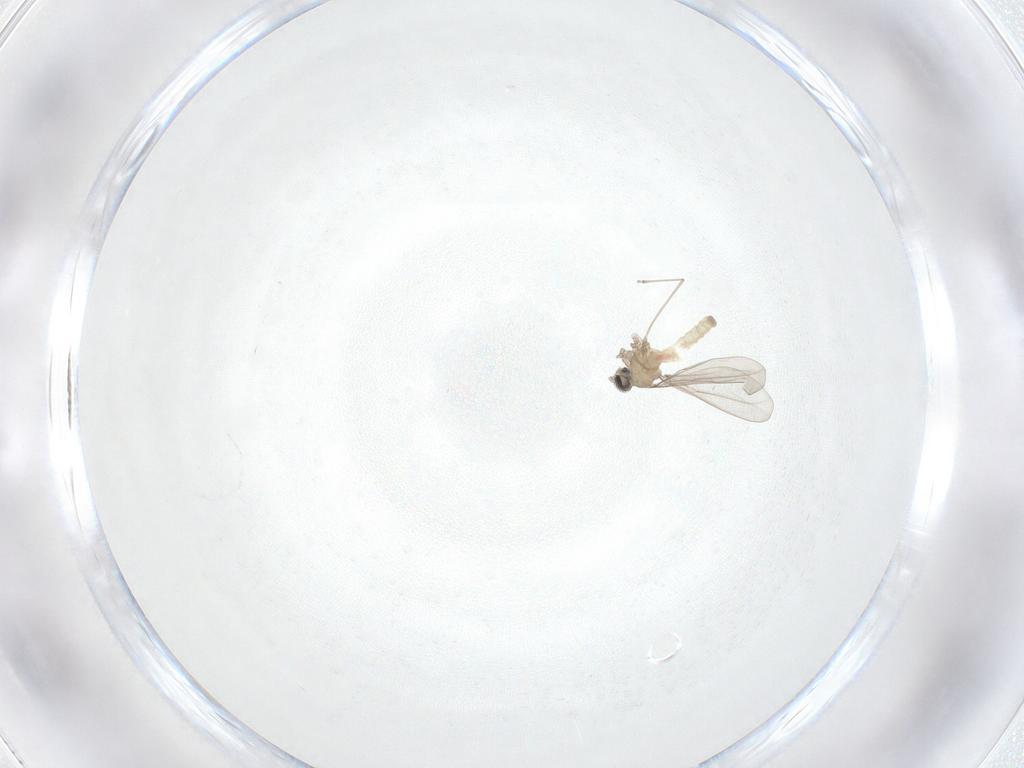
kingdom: Animalia
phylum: Arthropoda
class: Insecta
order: Diptera
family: Cecidomyiidae
